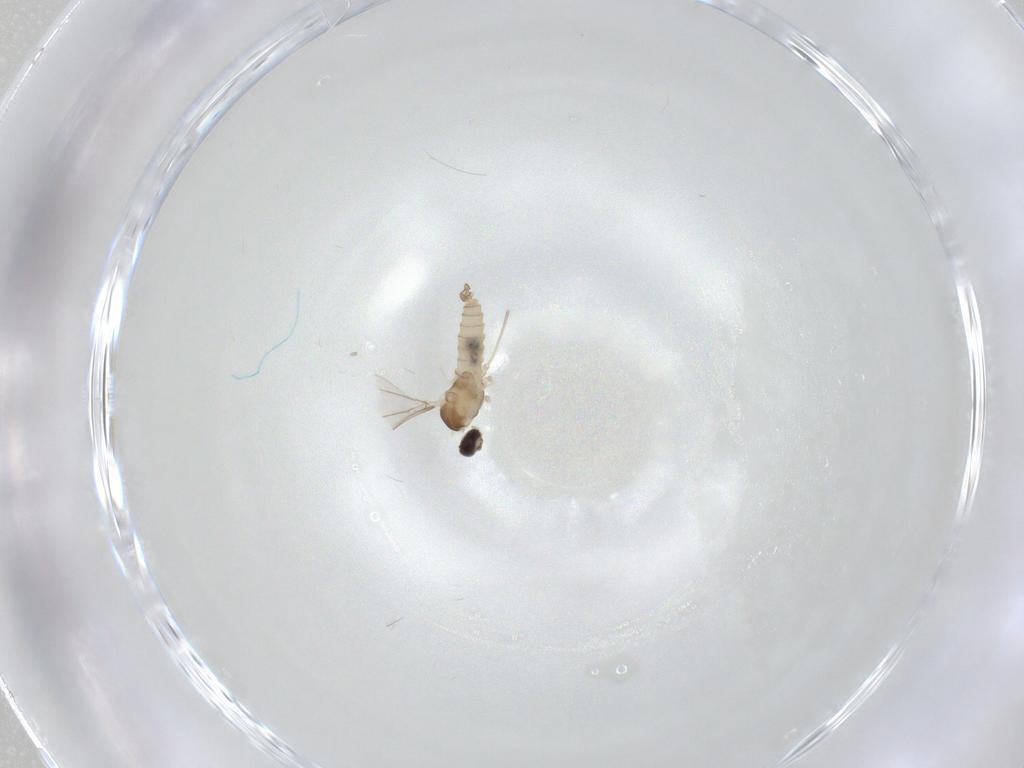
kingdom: Animalia
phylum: Arthropoda
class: Insecta
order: Diptera
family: Cecidomyiidae
